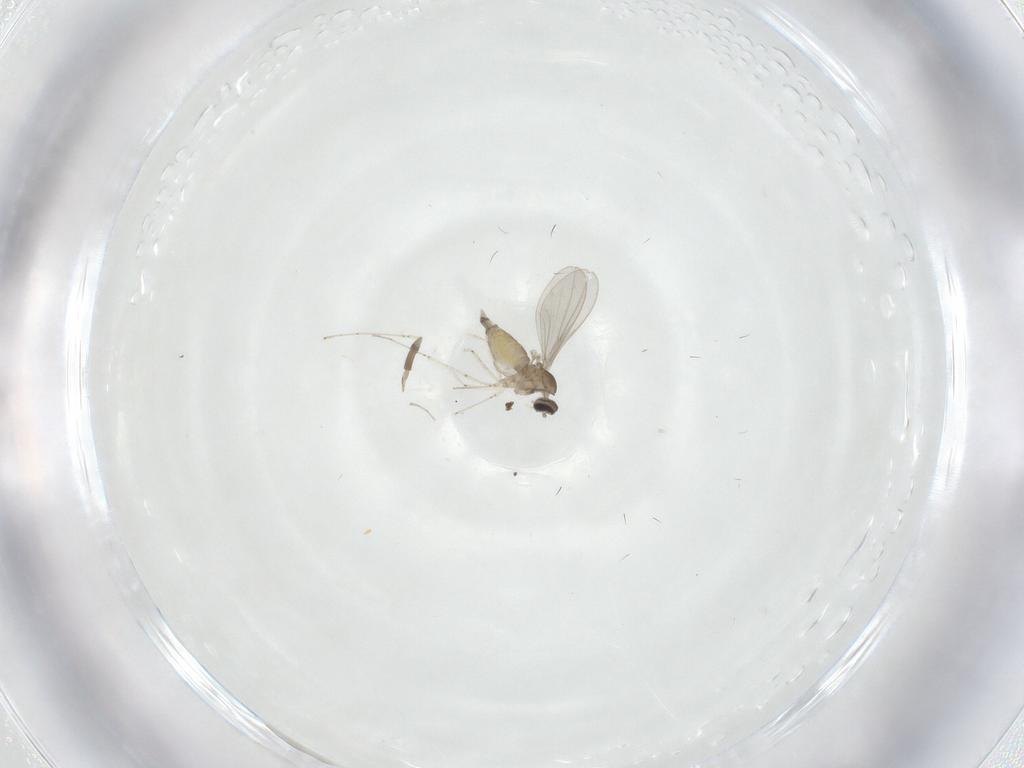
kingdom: Animalia
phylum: Arthropoda
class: Insecta
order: Diptera
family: Cecidomyiidae
